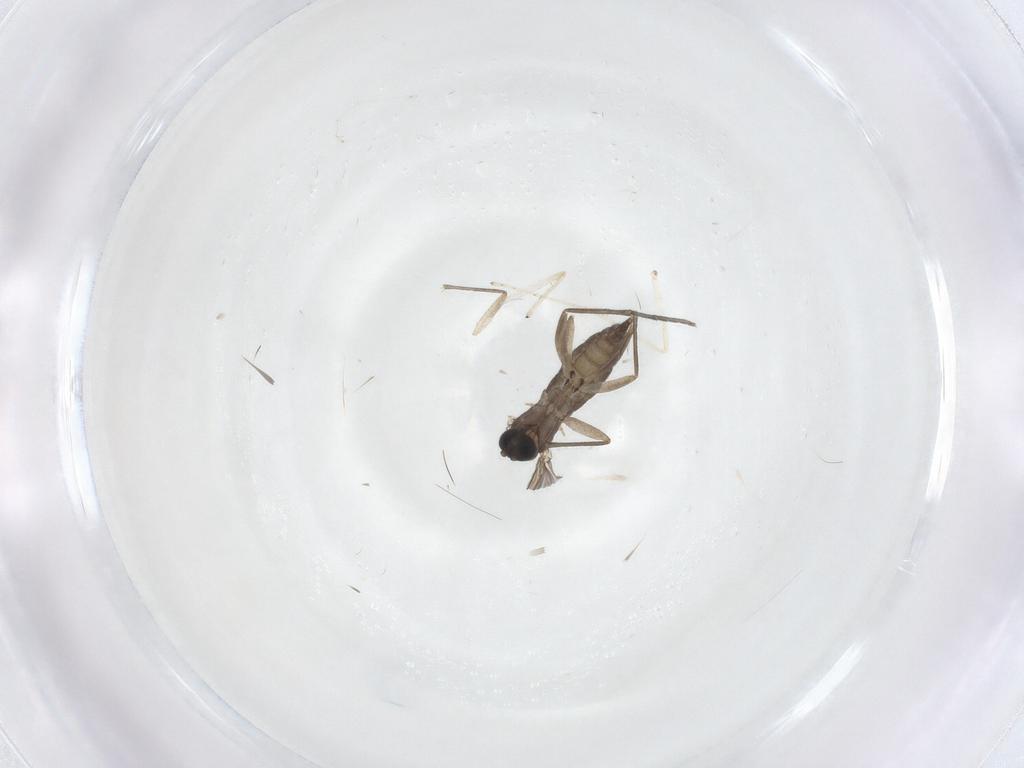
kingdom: Animalia
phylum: Arthropoda
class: Insecta
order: Diptera
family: Sciaridae
